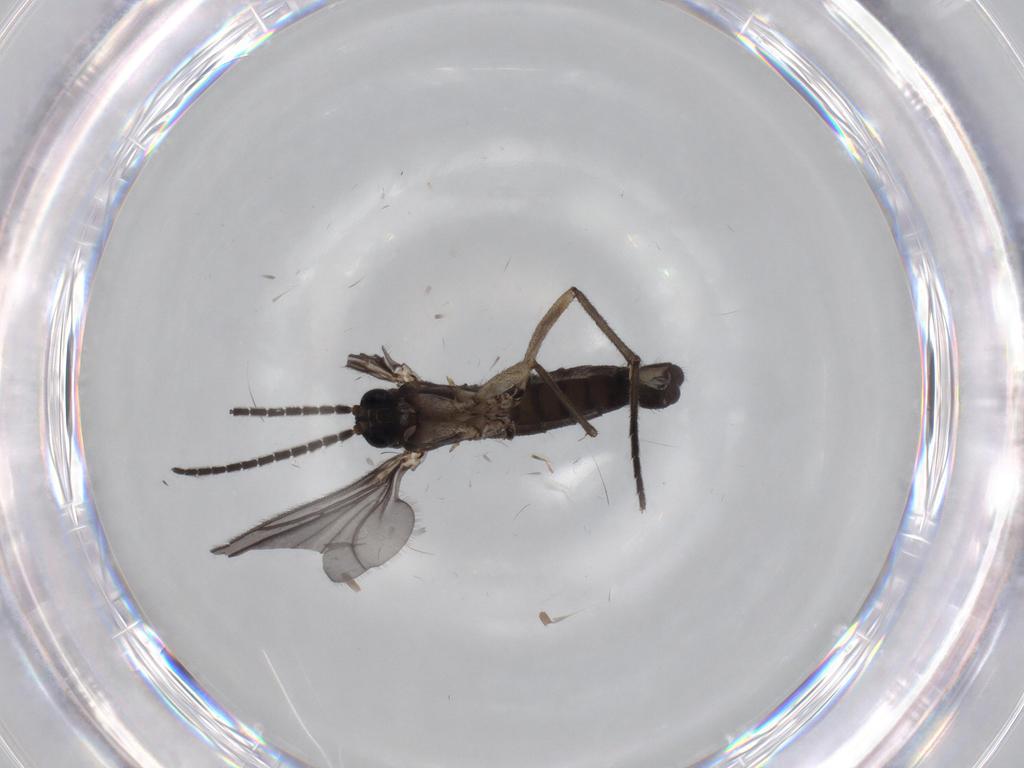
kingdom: Animalia
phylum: Arthropoda
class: Insecta
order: Diptera
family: Sciaridae
